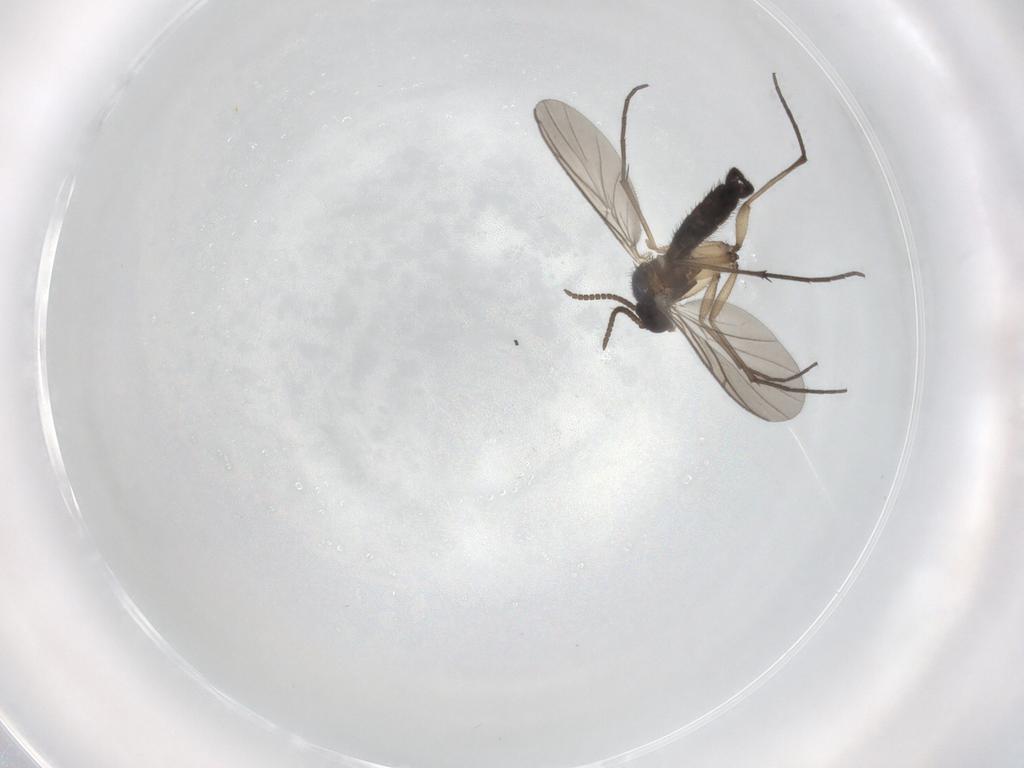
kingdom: Animalia
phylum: Arthropoda
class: Insecta
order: Diptera
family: Keroplatidae
